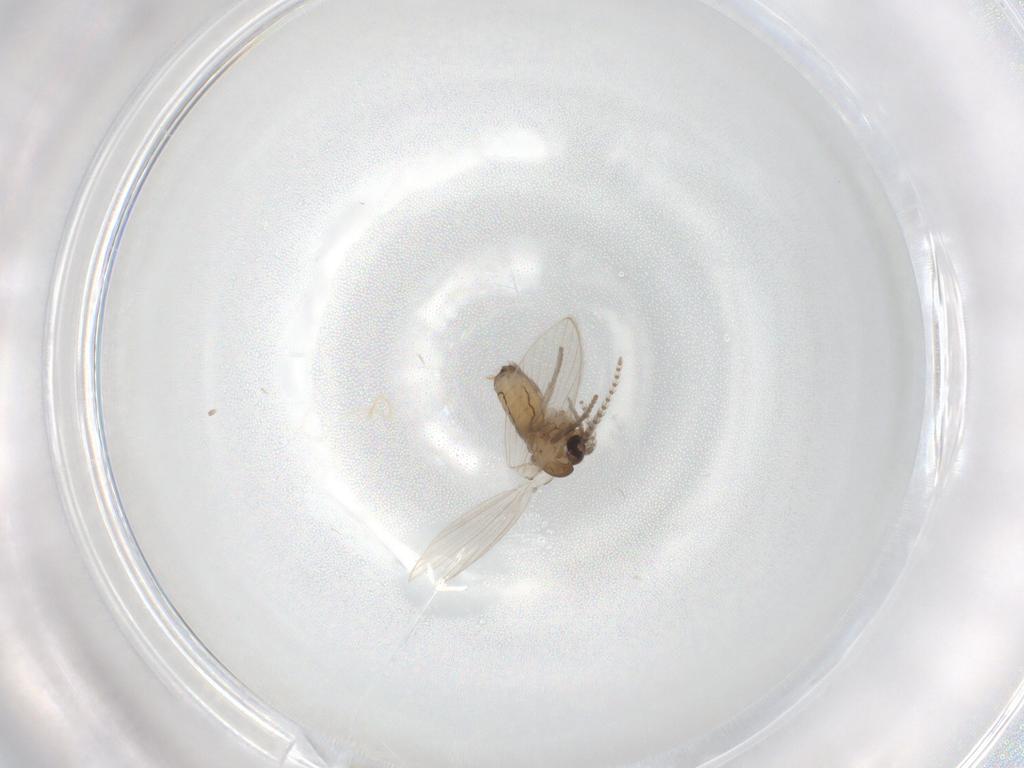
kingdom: Animalia
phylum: Arthropoda
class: Insecta
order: Diptera
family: Psychodidae
